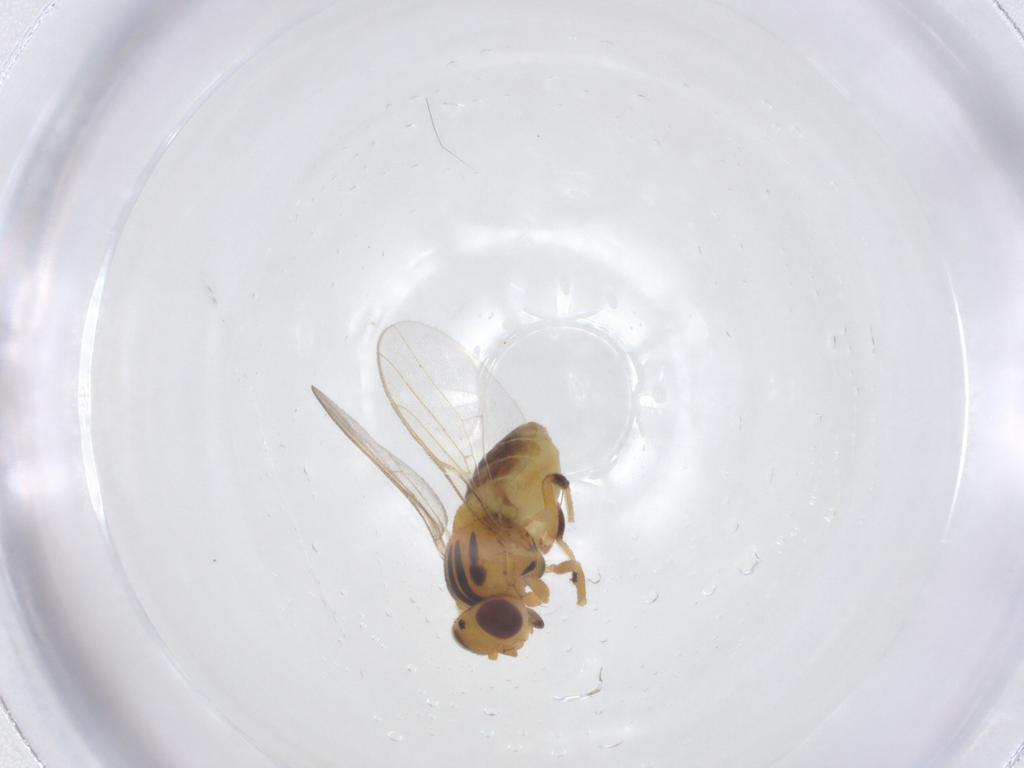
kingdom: Animalia
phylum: Arthropoda
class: Insecta
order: Diptera
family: Chloropidae
